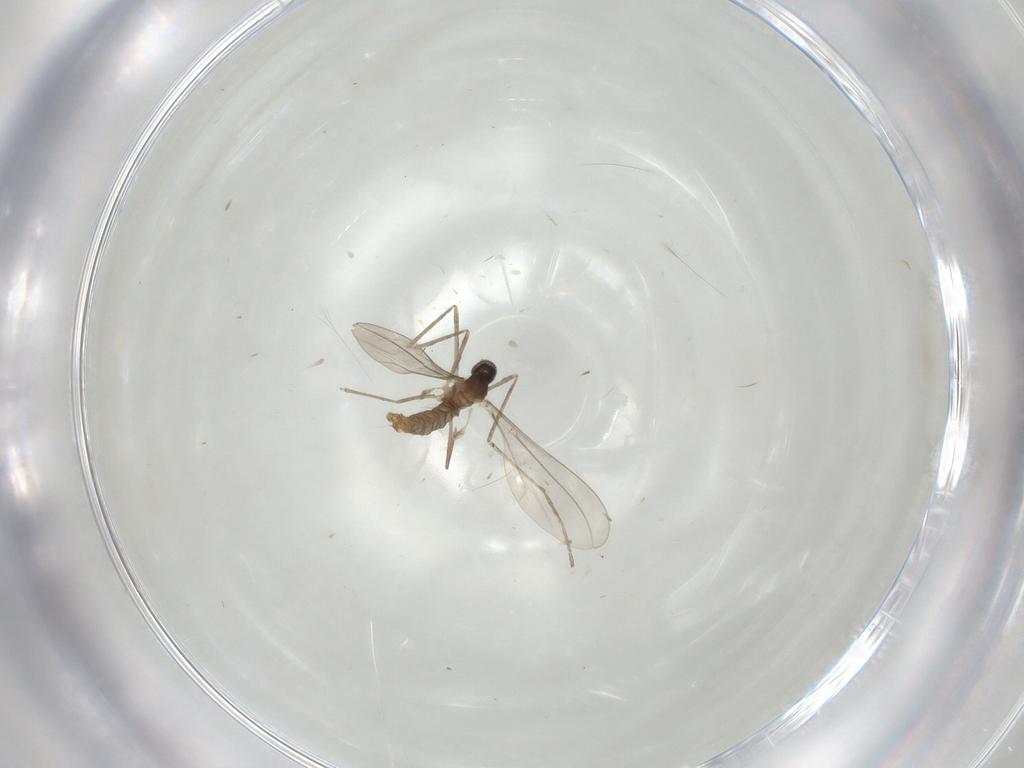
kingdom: Animalia
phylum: Arthropoda
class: Insecta
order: Diptera
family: Cecidomyiidae
